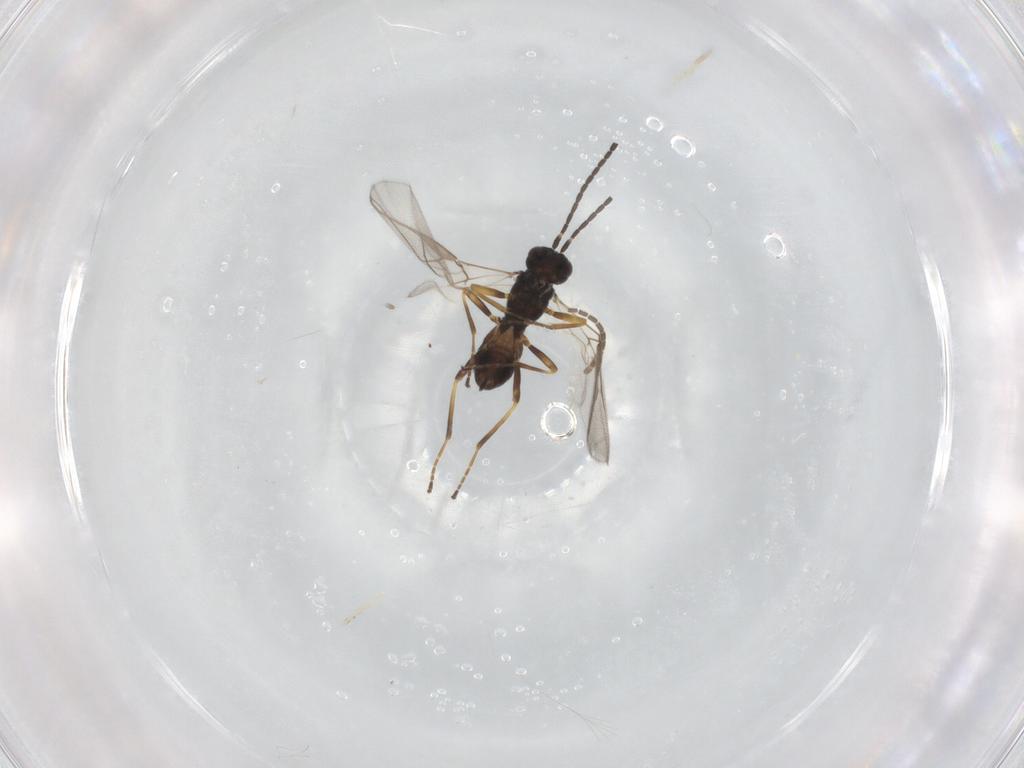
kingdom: Animalia
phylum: Arthropoda
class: Insecta
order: Hymenoptera
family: Braconidae
